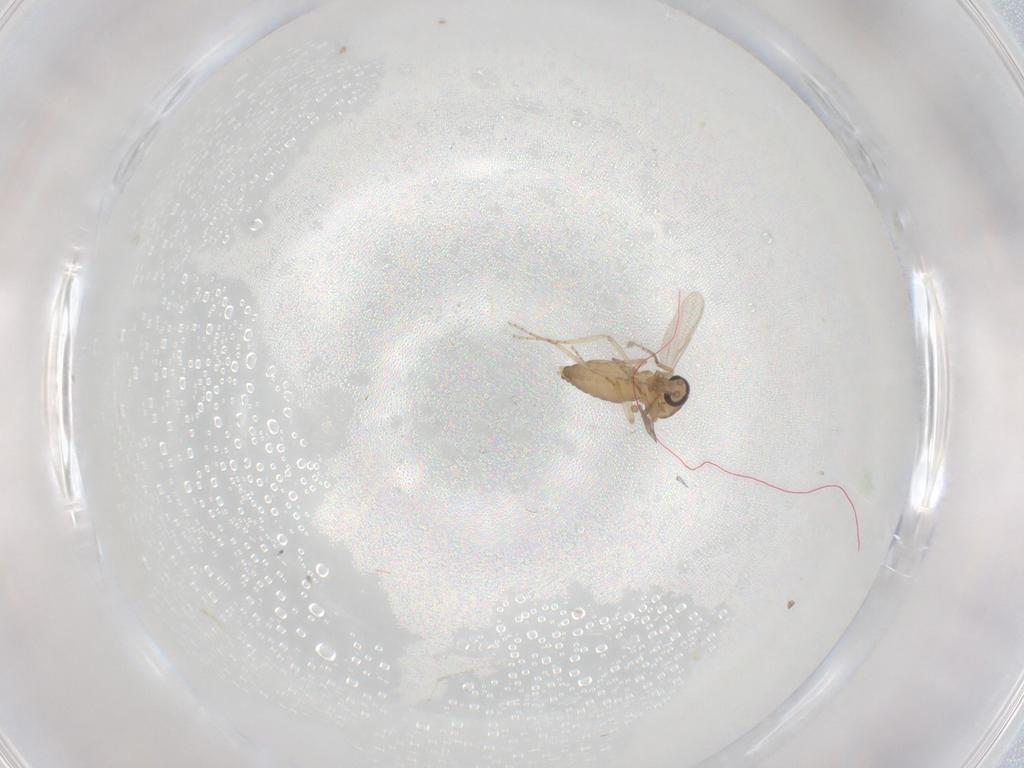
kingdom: Animalia
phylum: Arthropoda
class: Insecta
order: Diptera
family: Ceratopogonidae
